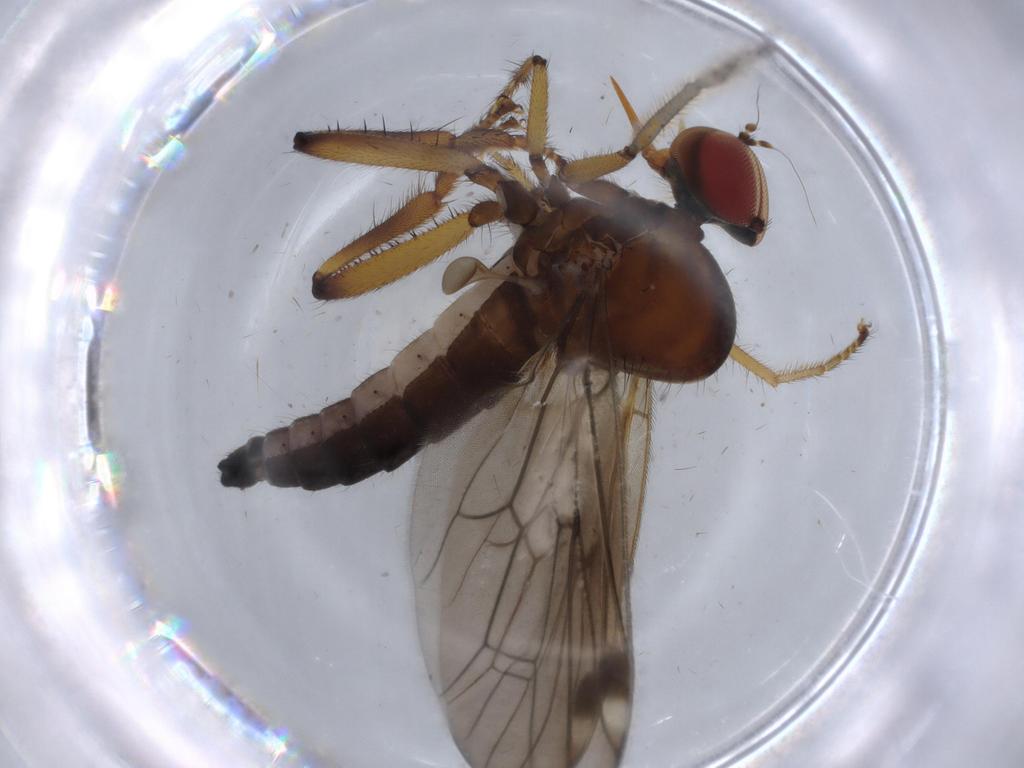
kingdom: Animalia
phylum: Arthropoda
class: Insecta
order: Diptera
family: Hybotidae
